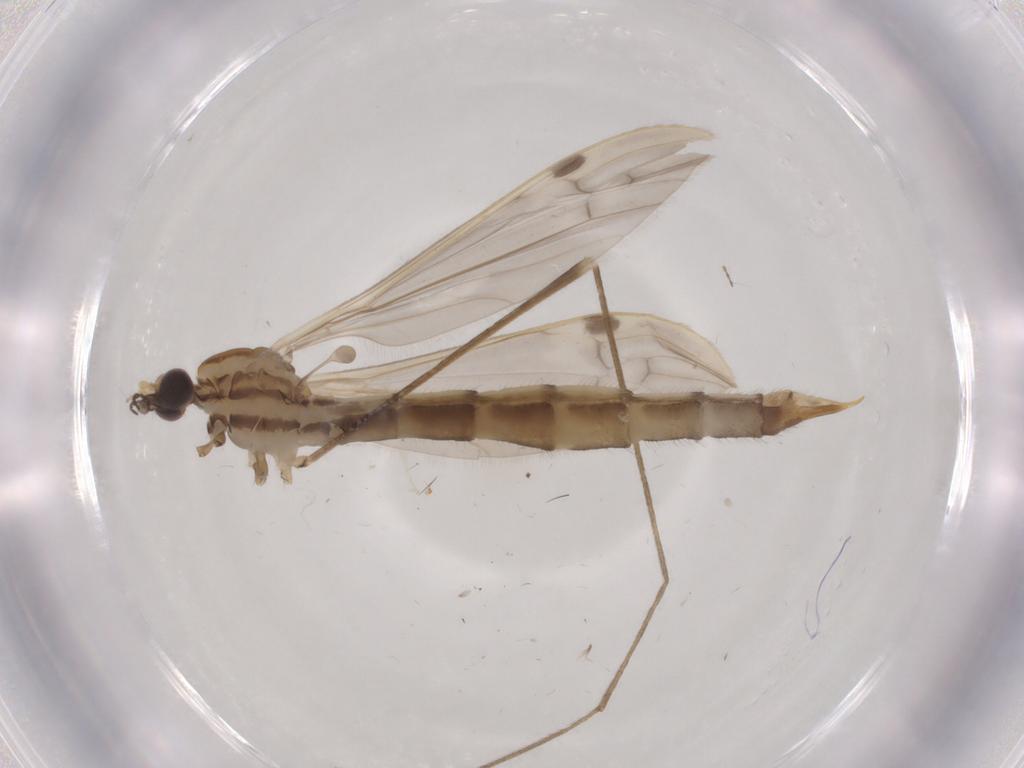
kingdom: Animalia
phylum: Arthropoda
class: Insecta
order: Diptera
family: Limoniidae
